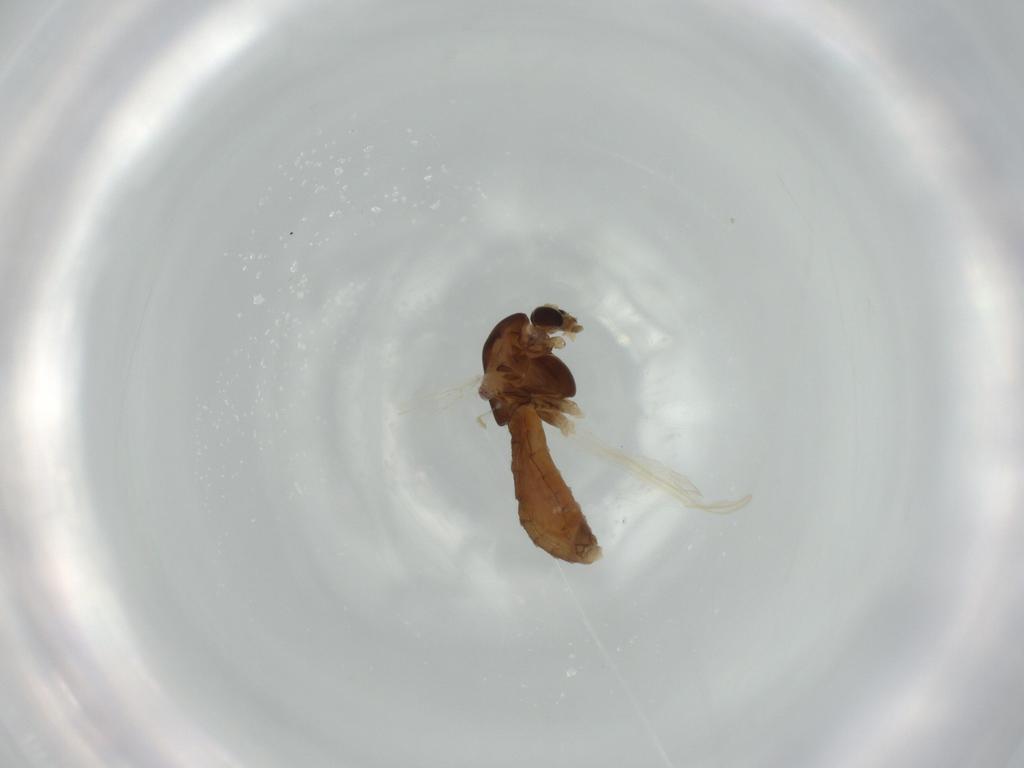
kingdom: Animalia
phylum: Arthropoda
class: Insecta
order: Diptera
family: Chironomidae
